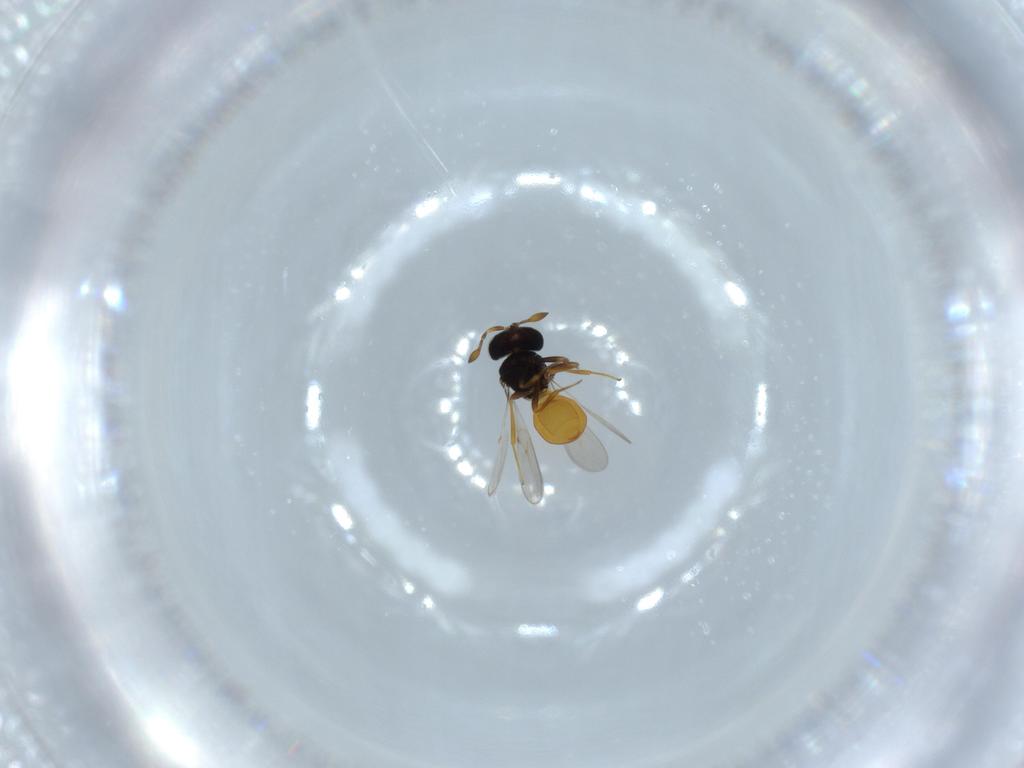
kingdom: Animalia
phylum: Arthropoda
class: Insecta
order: Hymenoptera
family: Scelionidae
